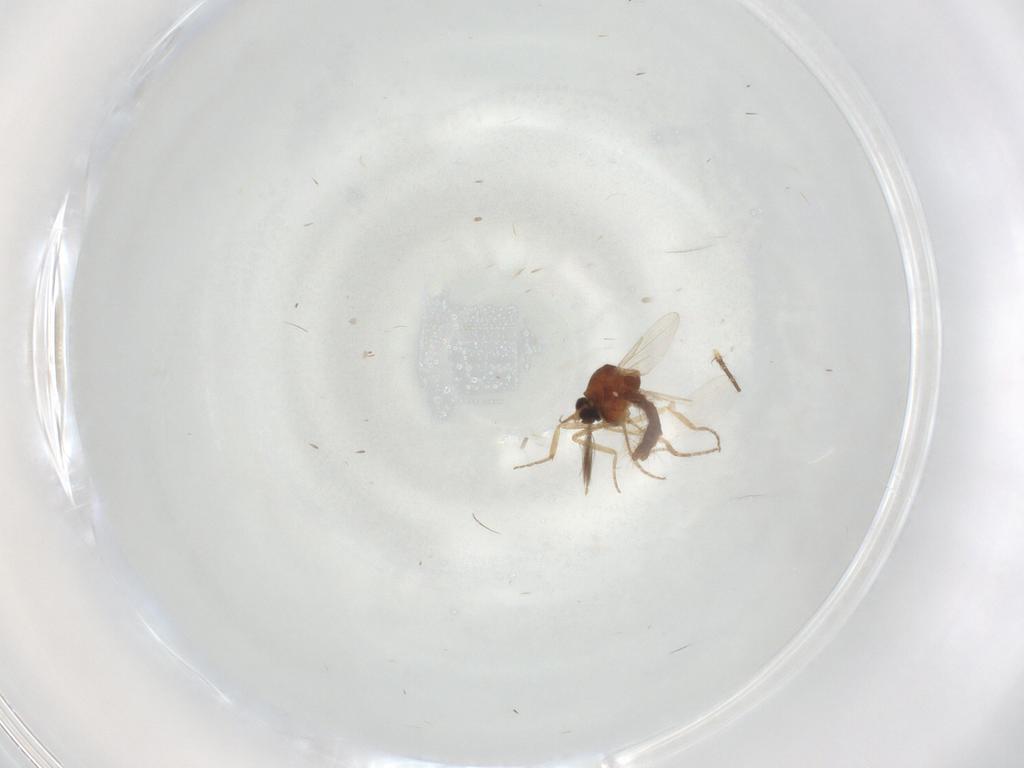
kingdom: Animalia
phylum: Arthropoda
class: Insecta
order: Diptera
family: Ceratopogonidae
